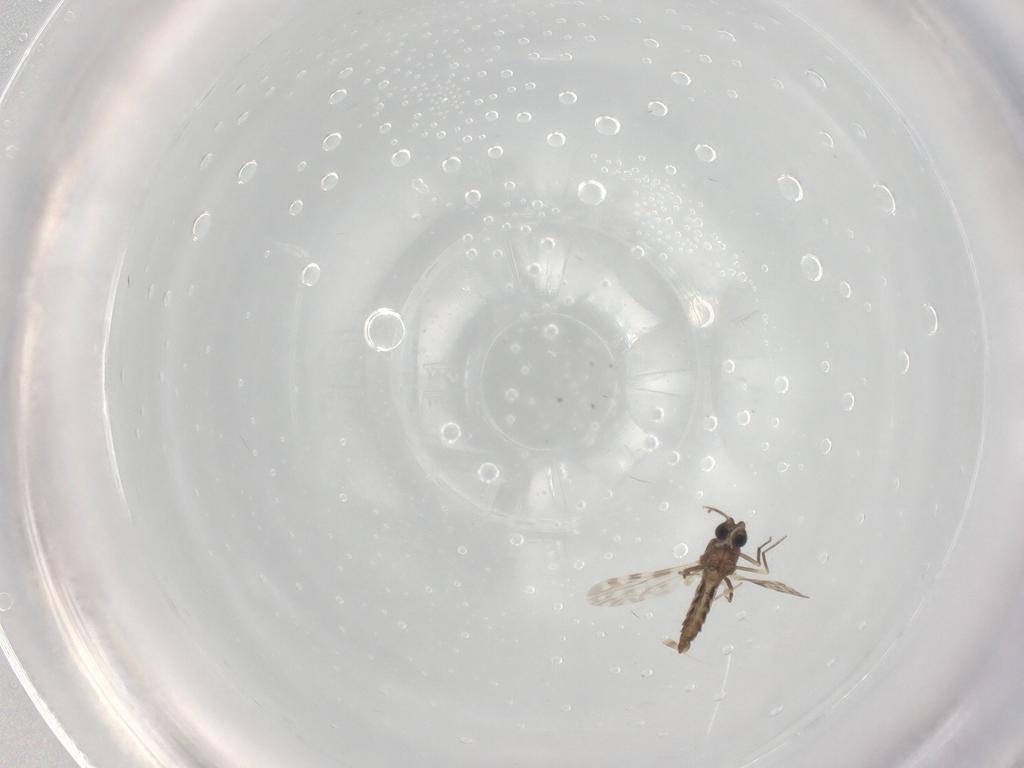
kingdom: Animalia
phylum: Arthropoda
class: Insecta
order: Diptera
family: Ceratopogonidae
